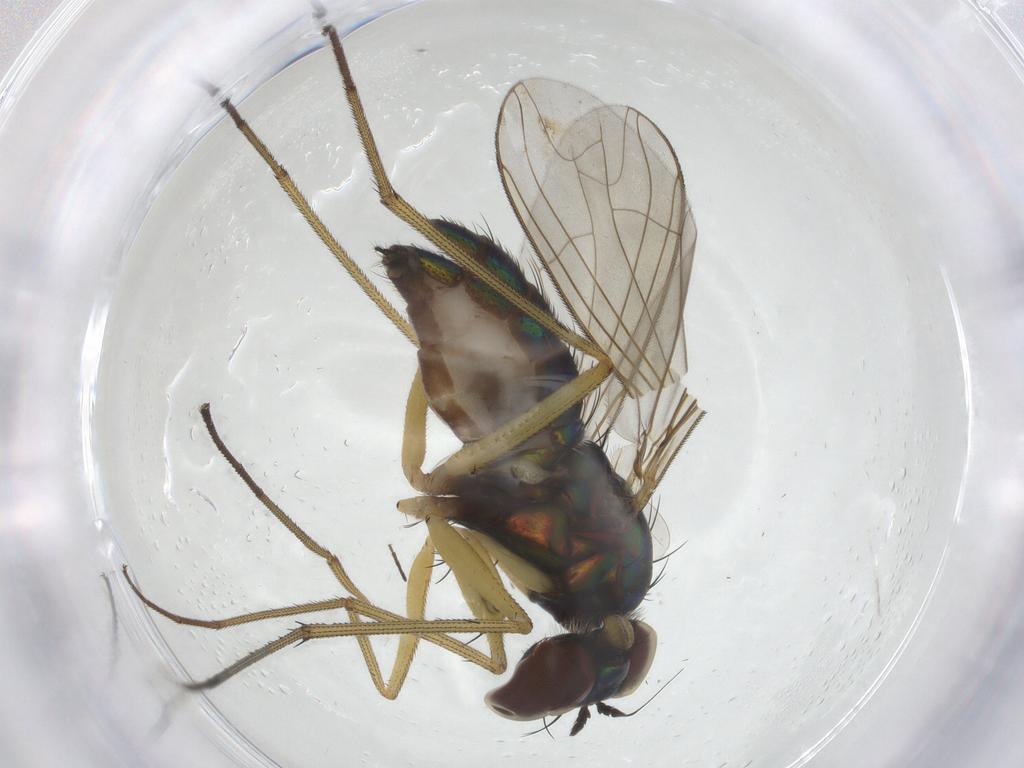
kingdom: Animalia
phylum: Arthropoda
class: Insecta
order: Diptera
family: Dolichopodidae
